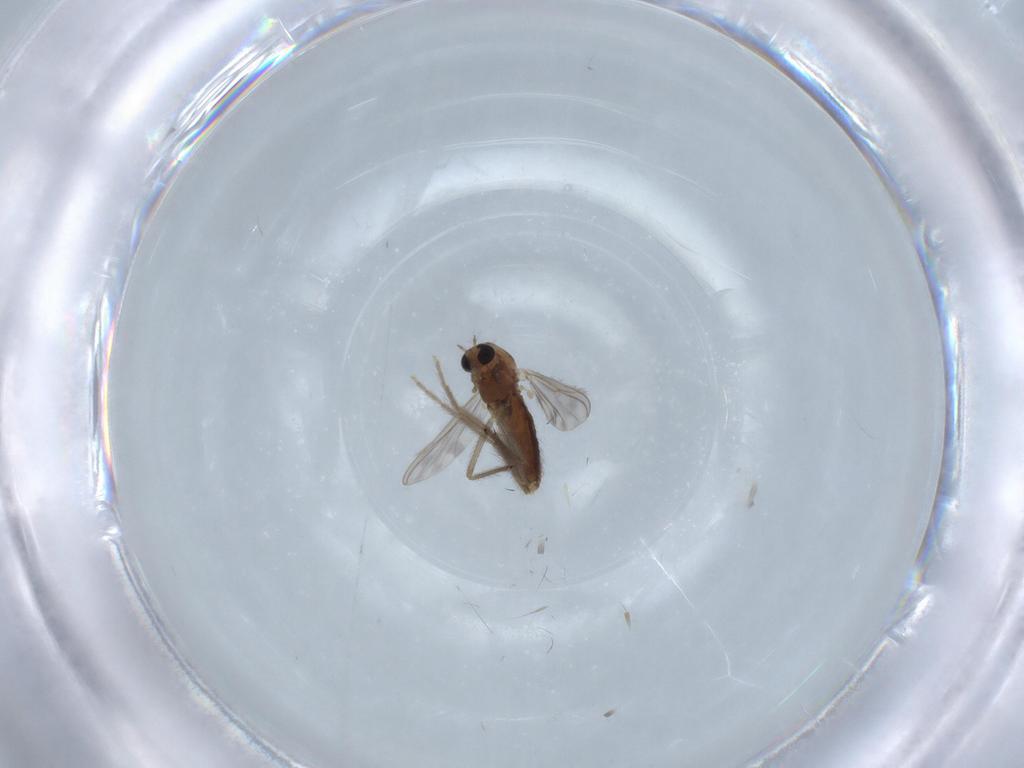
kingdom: Animalia
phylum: Arthropoda
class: Insecta
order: Diptera
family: Chironomidae
